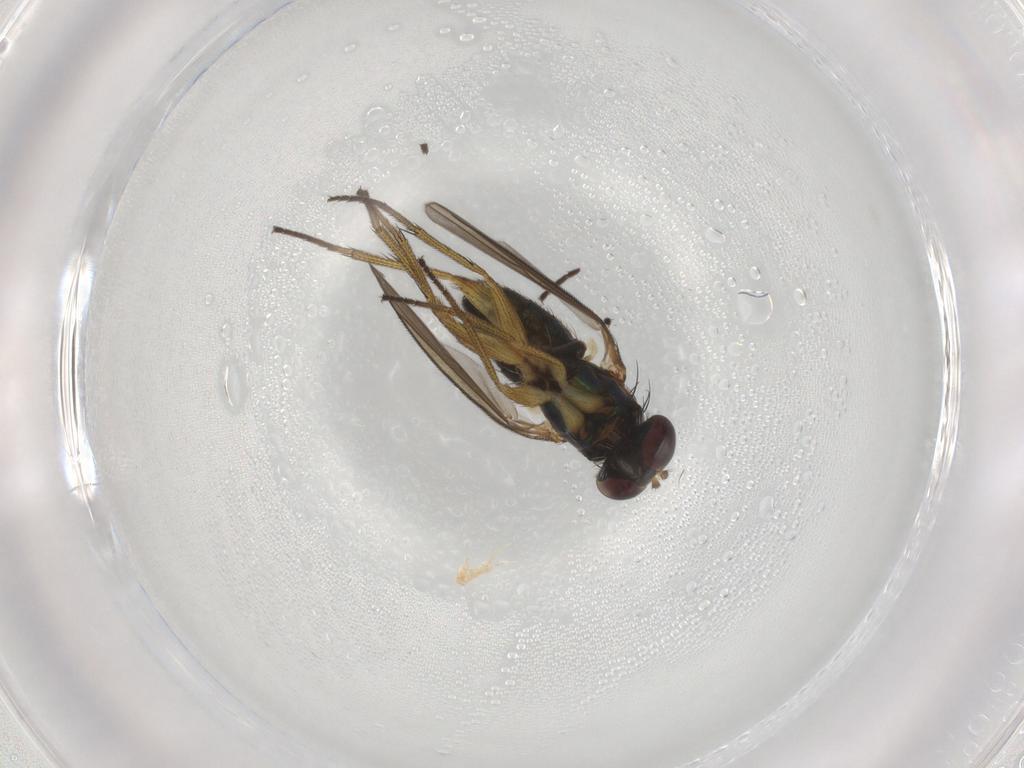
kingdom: Animalia
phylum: Arthropoda
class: Insecta
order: Diptera
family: Dolichopodidae
